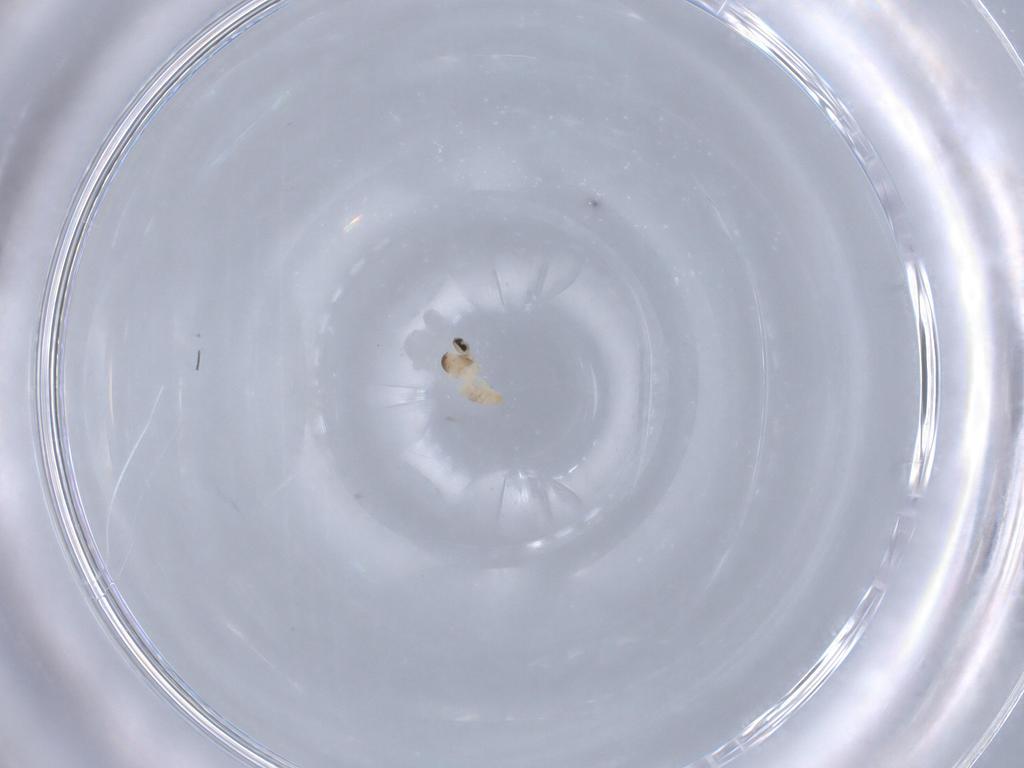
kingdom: Animalia
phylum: Arthropoda
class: Insecta
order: Diptera
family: Cecidomyiidae
